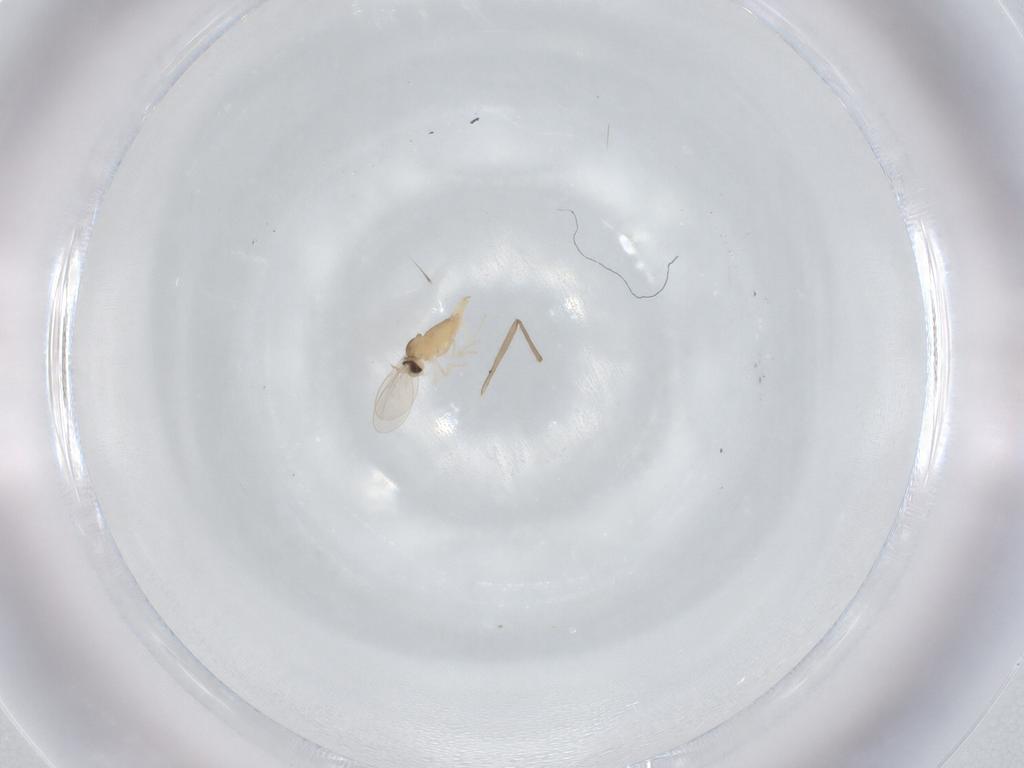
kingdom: Animalia
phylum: Arthropoda
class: Insecta
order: Diptera
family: Cecidomyiidae
